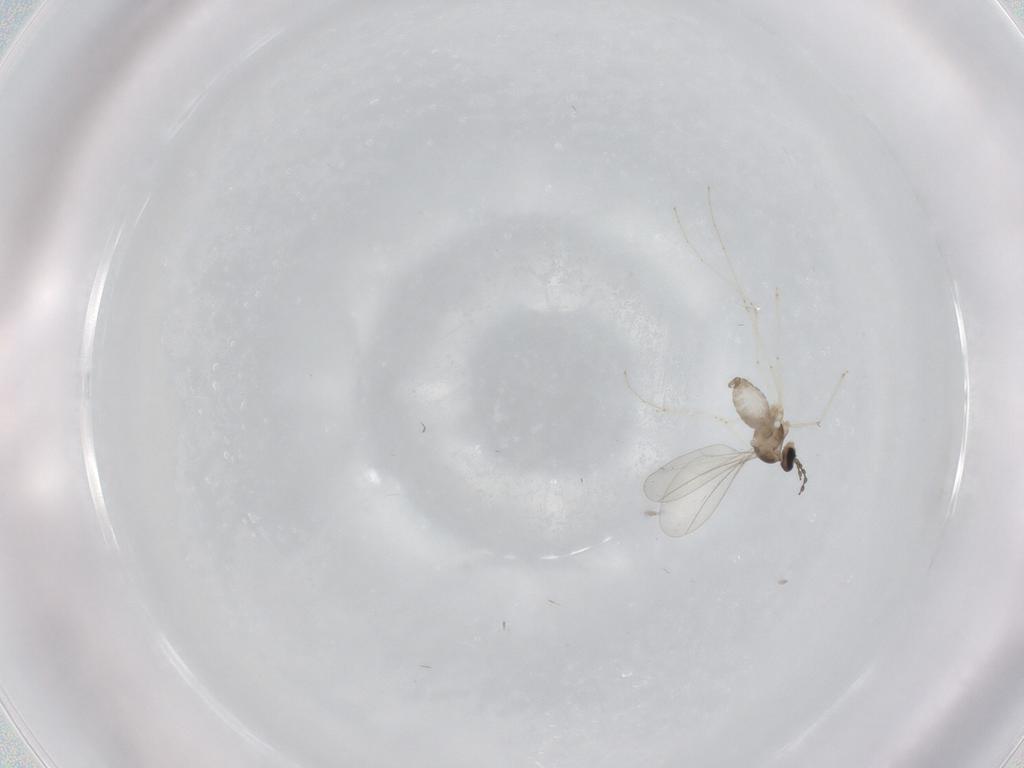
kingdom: Animalia
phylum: Arthropoda
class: Insecta
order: Diptera
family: Cecidomyiidae
